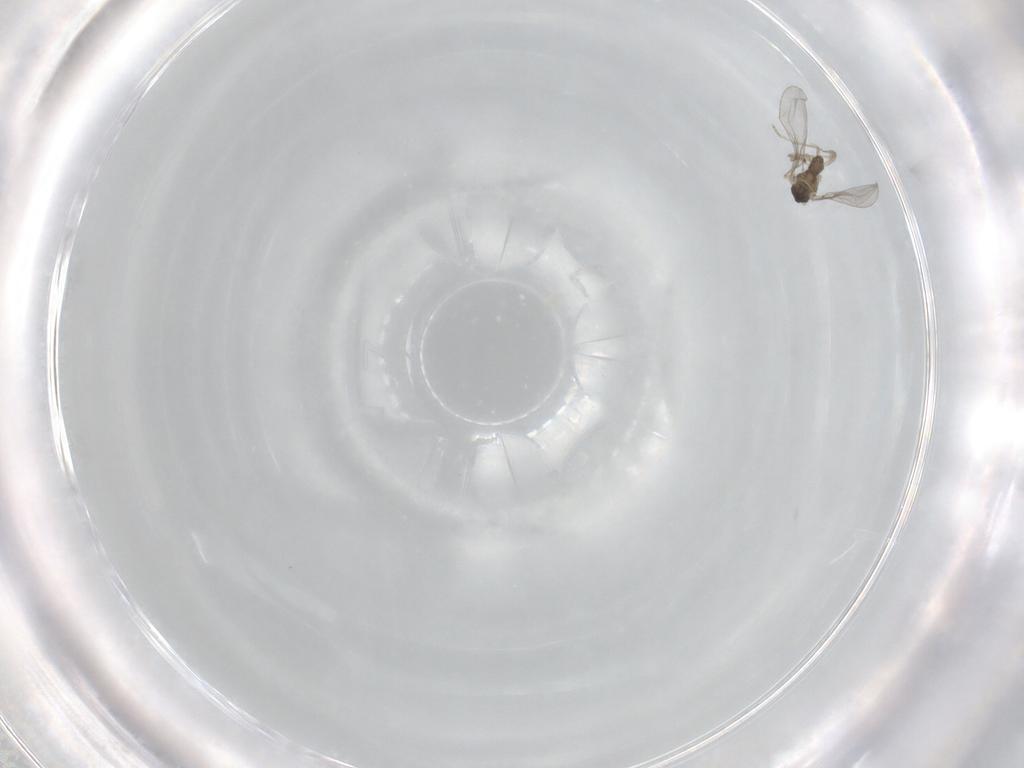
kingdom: Animalia
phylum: Arthropoda
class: Insecta
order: Diptera
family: Cecidomyiidae
